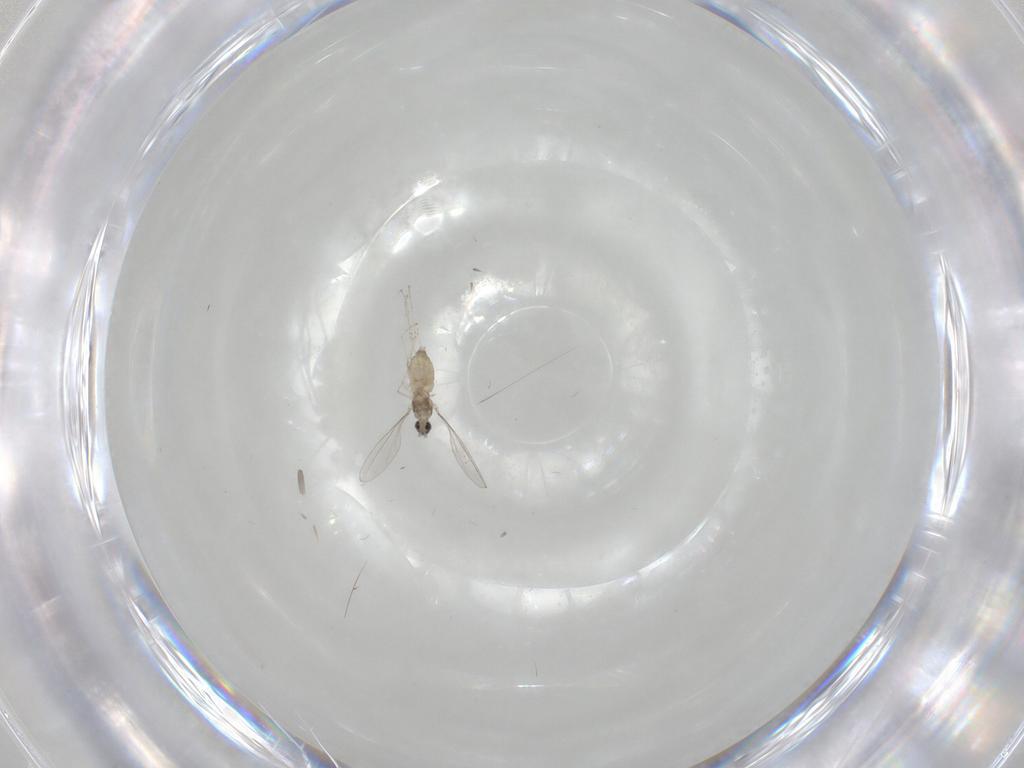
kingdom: Animalia
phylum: Arthropoda
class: Insecta
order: Diptera
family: Cecidomyiidae
